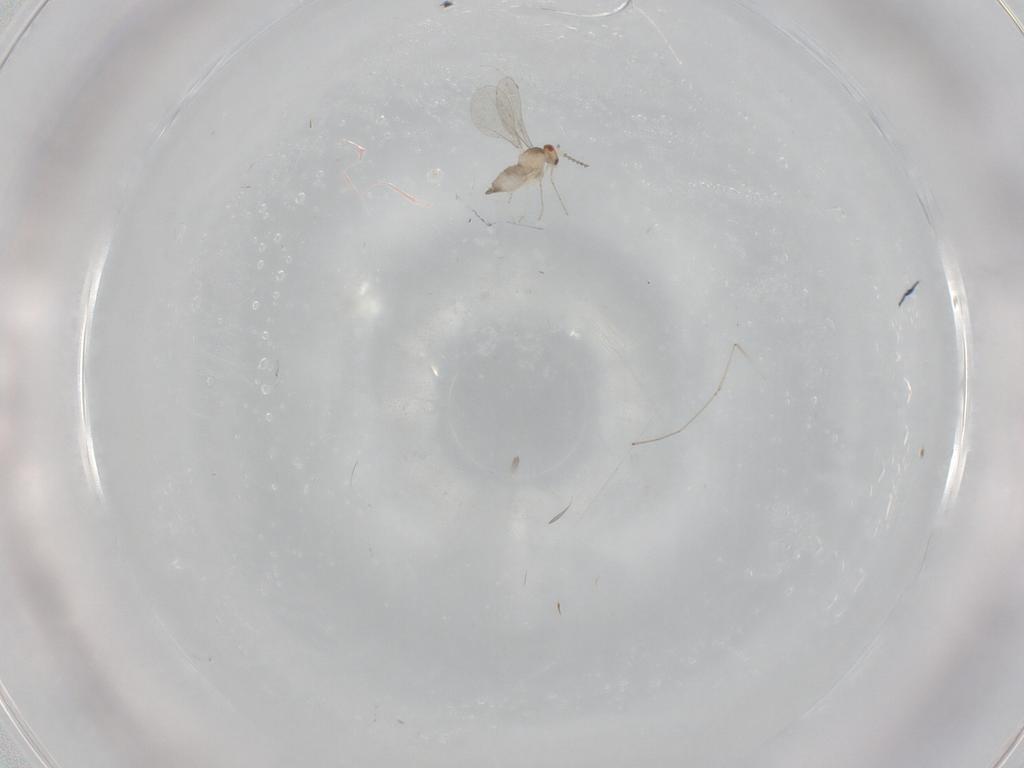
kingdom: Animalia
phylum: Arthropoda
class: Insecta
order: Diptera
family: Cecidomyiidae
